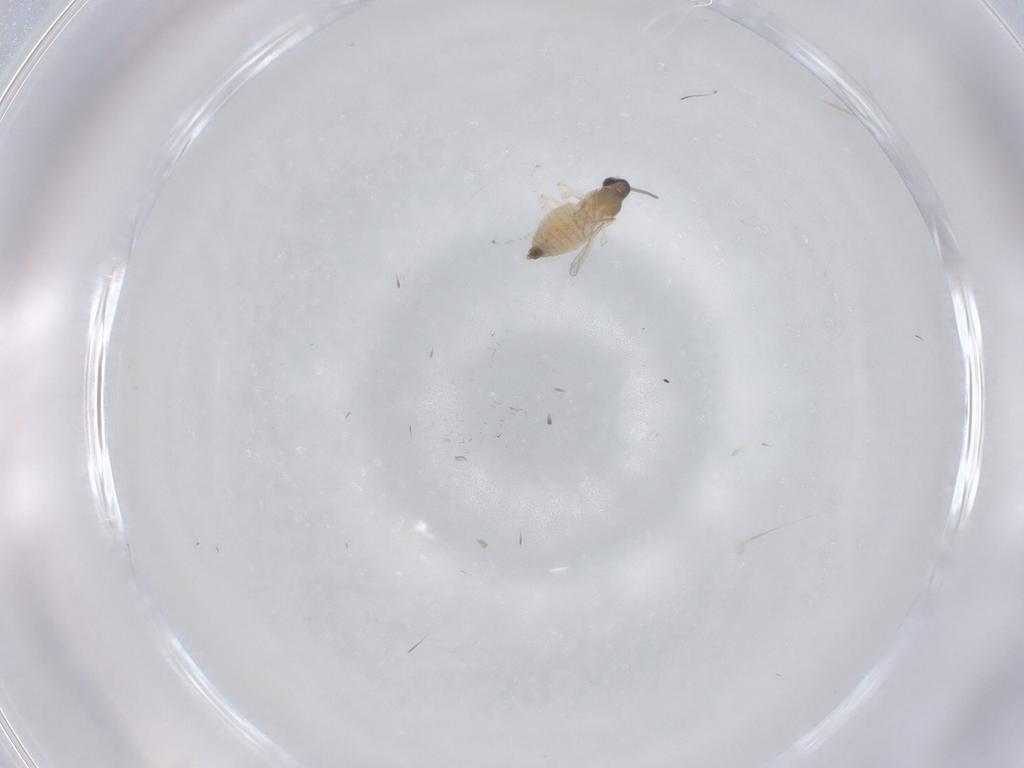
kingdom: Animalia
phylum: Arthropoda
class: Insecta
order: Diptera
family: Cecidomyiidae
